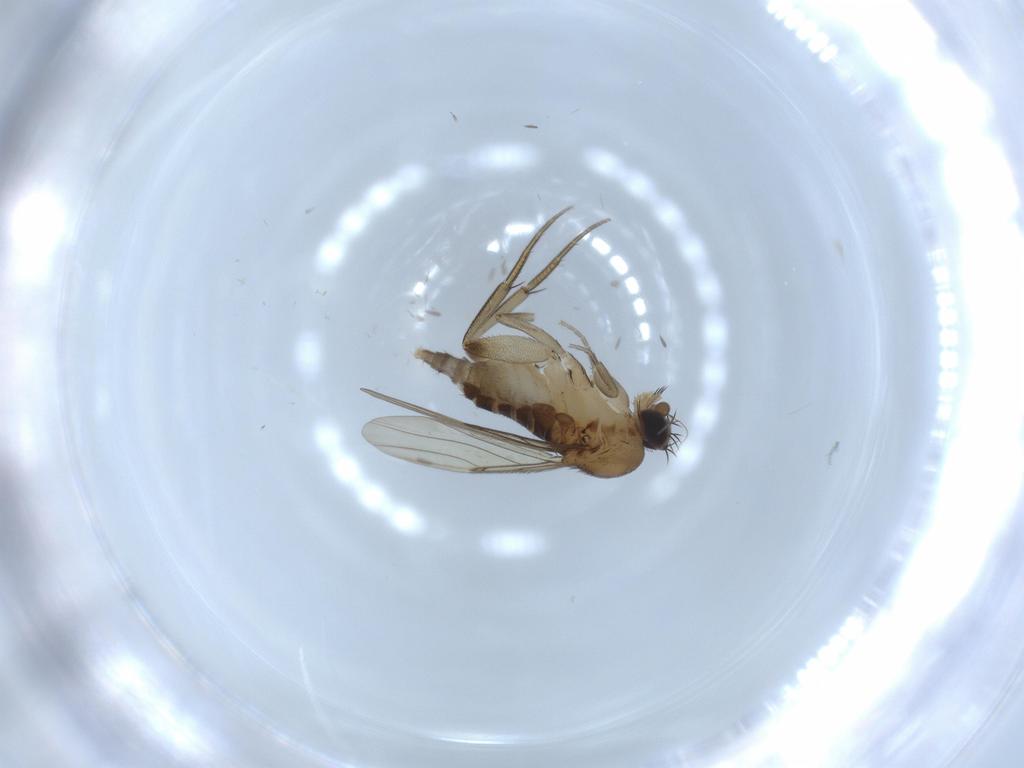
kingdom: Animalia
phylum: Arthropoda
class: Insecta
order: Diptera
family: Phoridae
